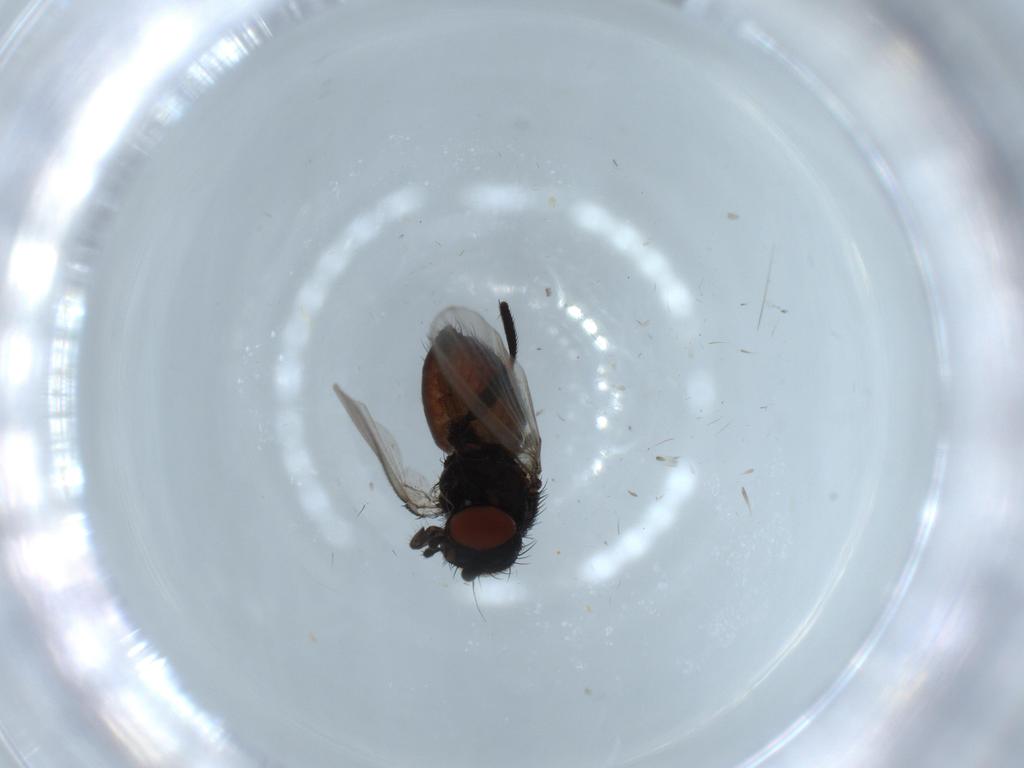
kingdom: Animalia
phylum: Arthropoda
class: Insecta
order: Diptera
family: Milichiidae
